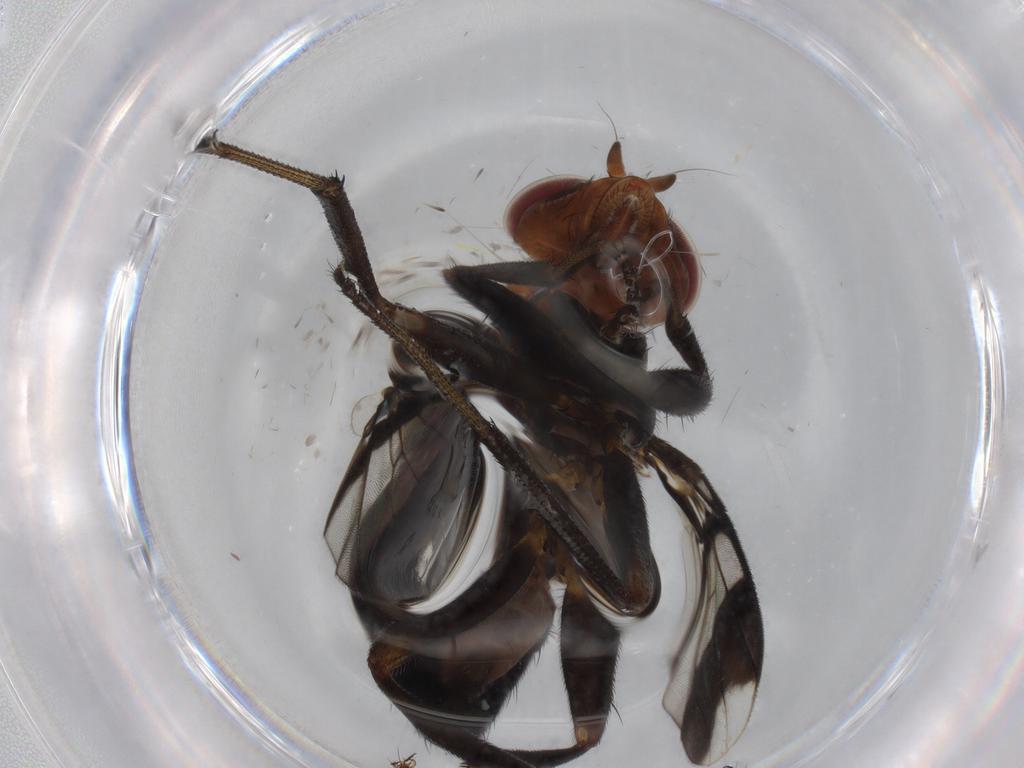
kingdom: Animalia
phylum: Arthropoda
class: Insecta
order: Diptera
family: Richardiidae
